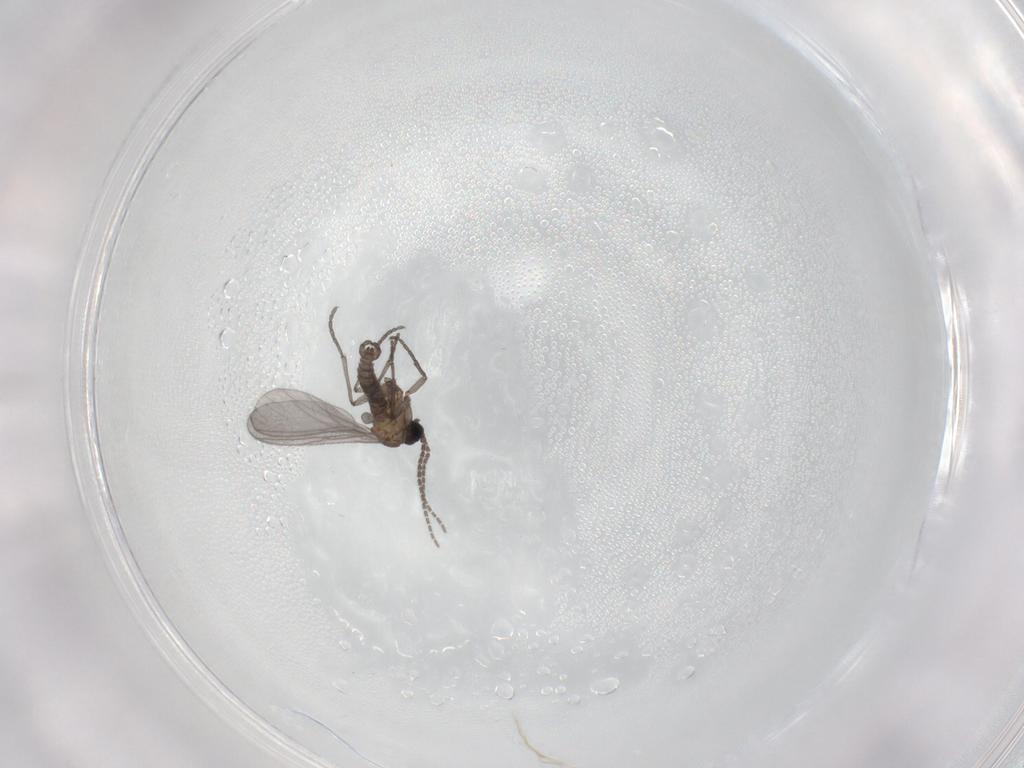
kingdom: Animalia
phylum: Arthropoda
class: Insecta
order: Diptera
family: Sciaridae
